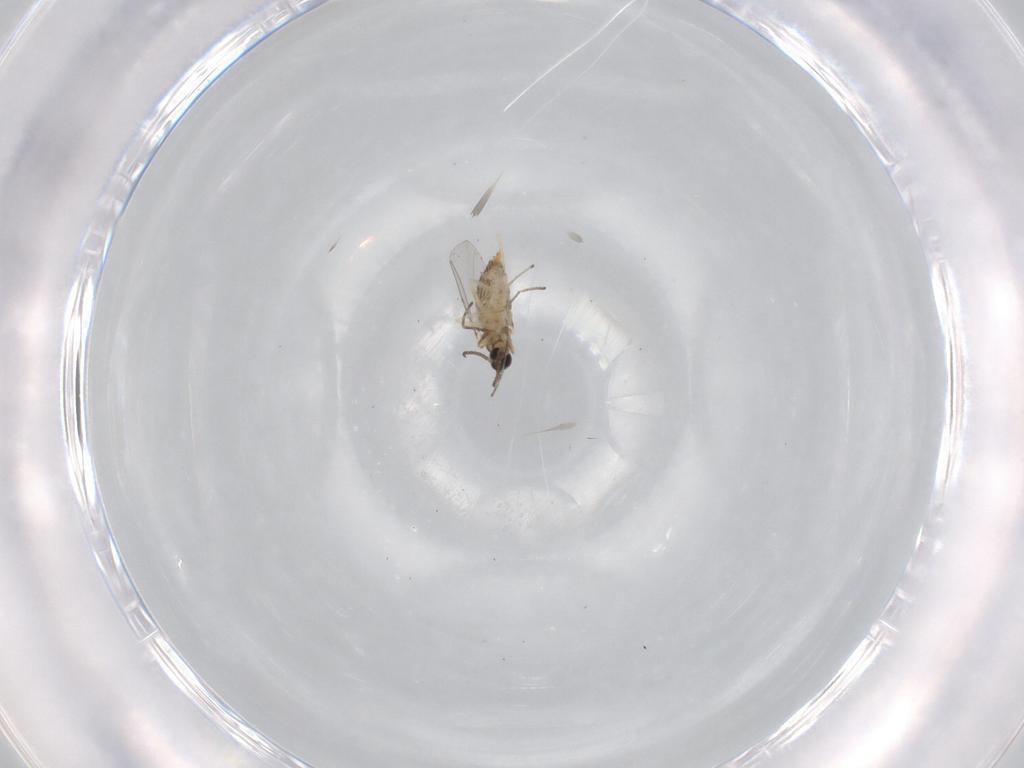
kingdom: Animalia
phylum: Arthropoda
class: Insecta
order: Diptera
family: Cecidomyiidae
